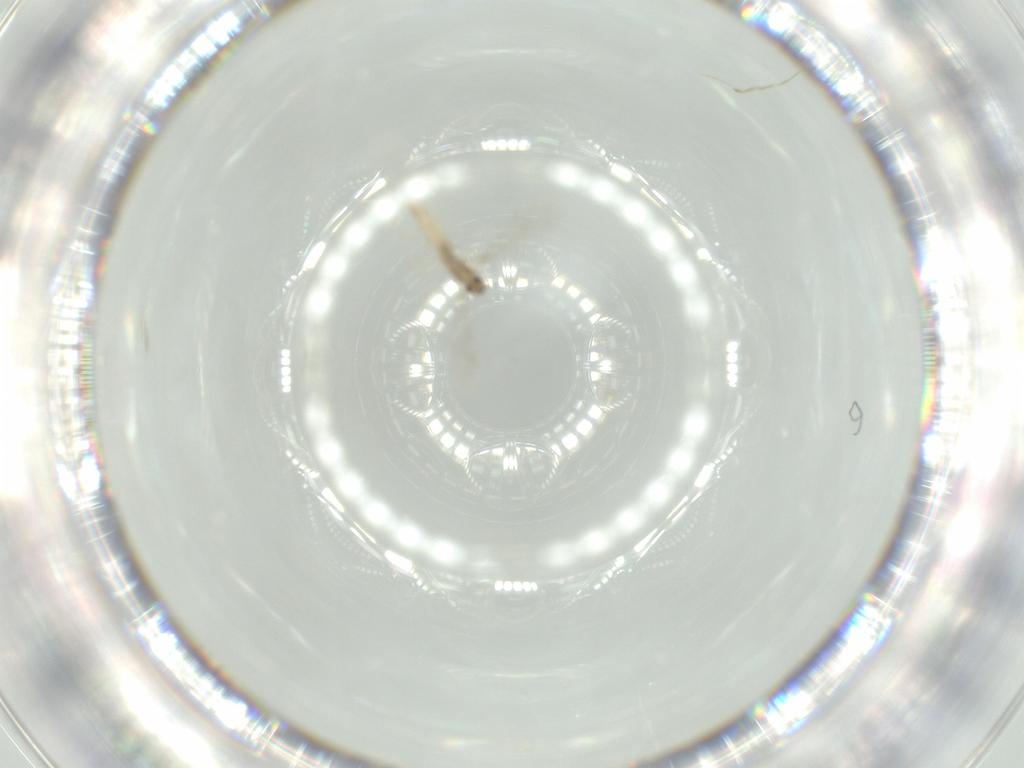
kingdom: Animalia
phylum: Arthropoda
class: Insecta
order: Diptera
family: Cecidomyiidae
